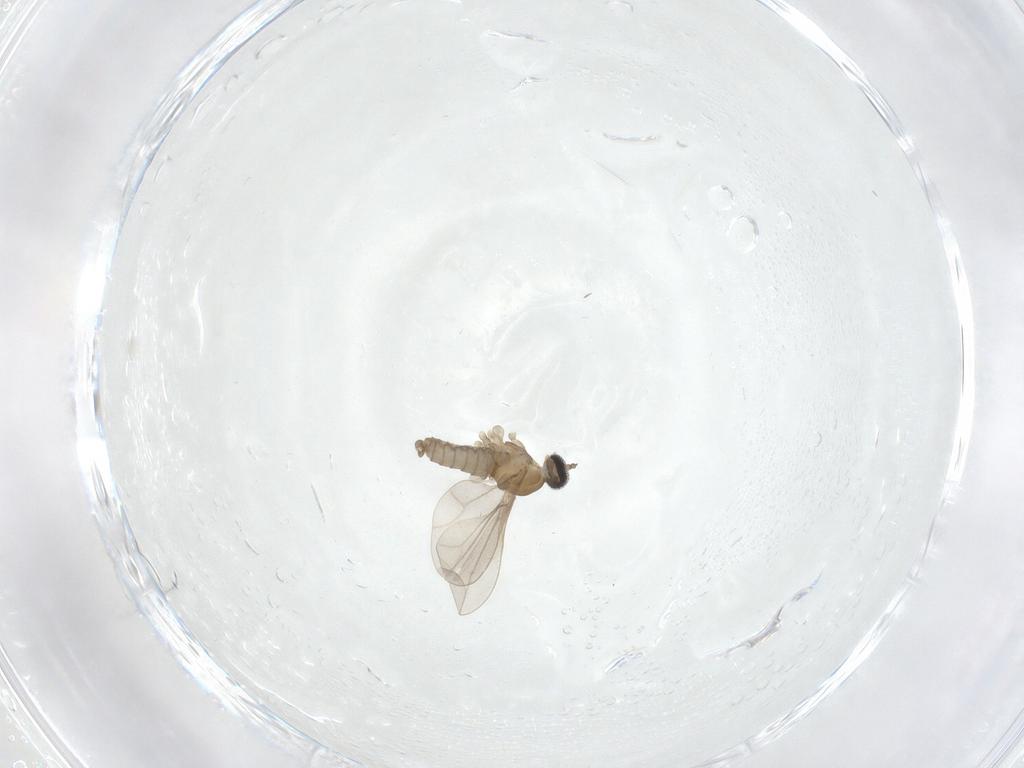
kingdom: Animalia
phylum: Arthropoda
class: Insecta
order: Diptera
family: Cecidomyiidae
